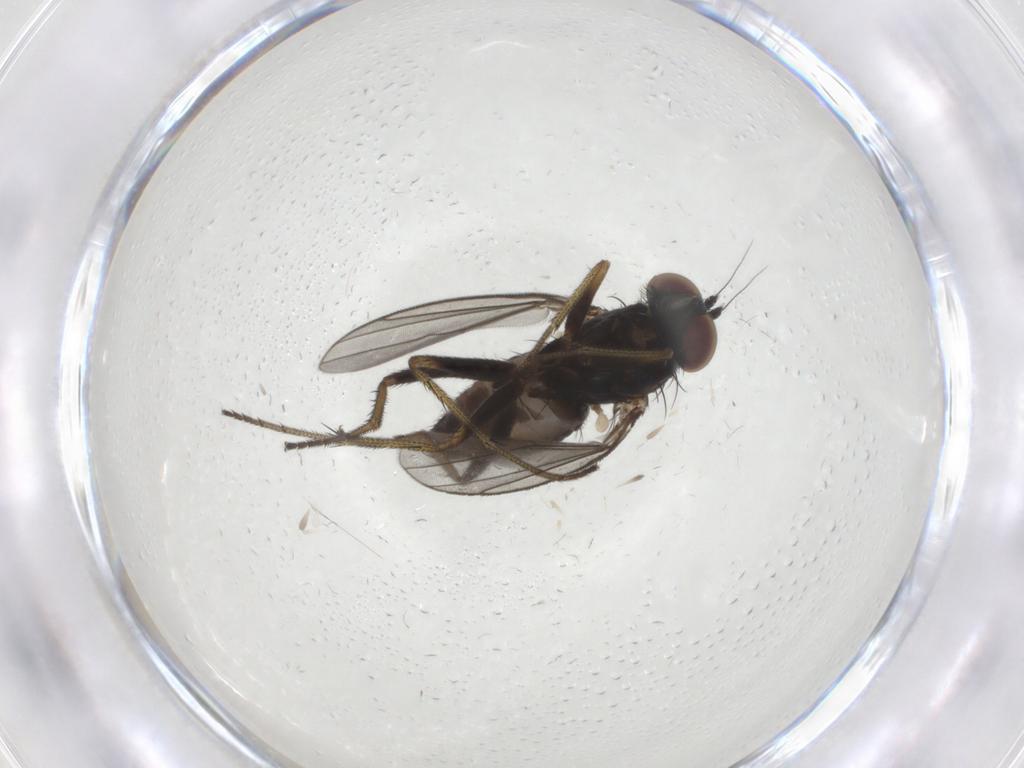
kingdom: Animalia
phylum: Arthropoda
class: Insecta
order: Diptera
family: Dolichopodidae
